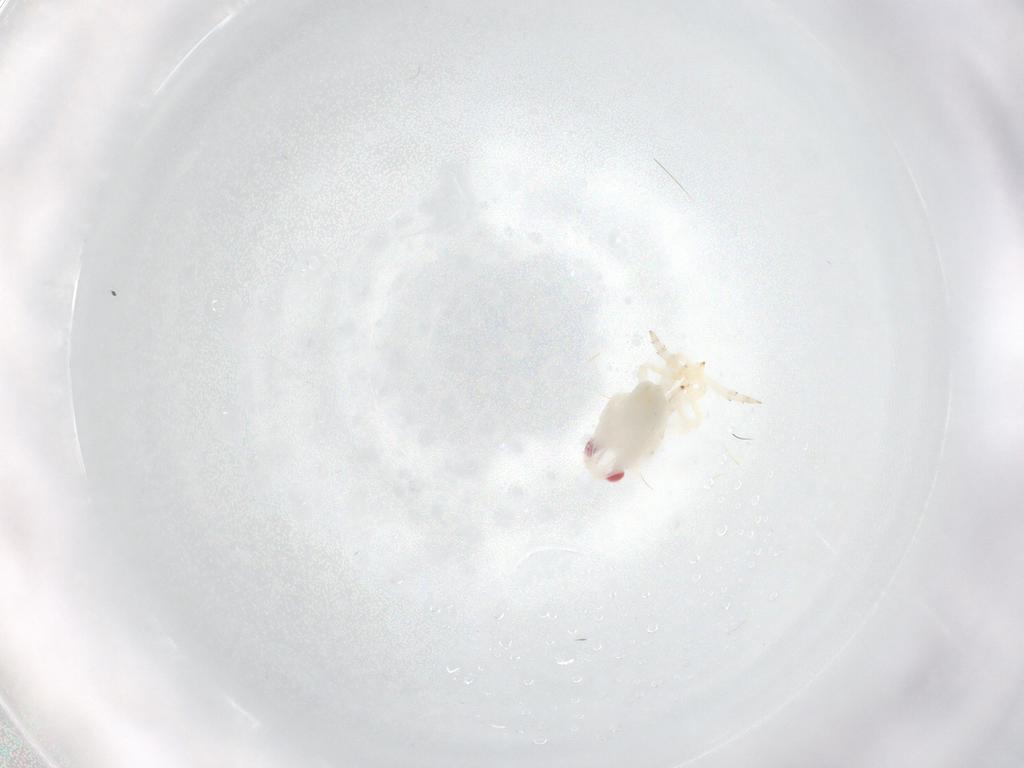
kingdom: Animalia
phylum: Arthropoda
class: Insecta
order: Hemiptera
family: Tropiduchidae
